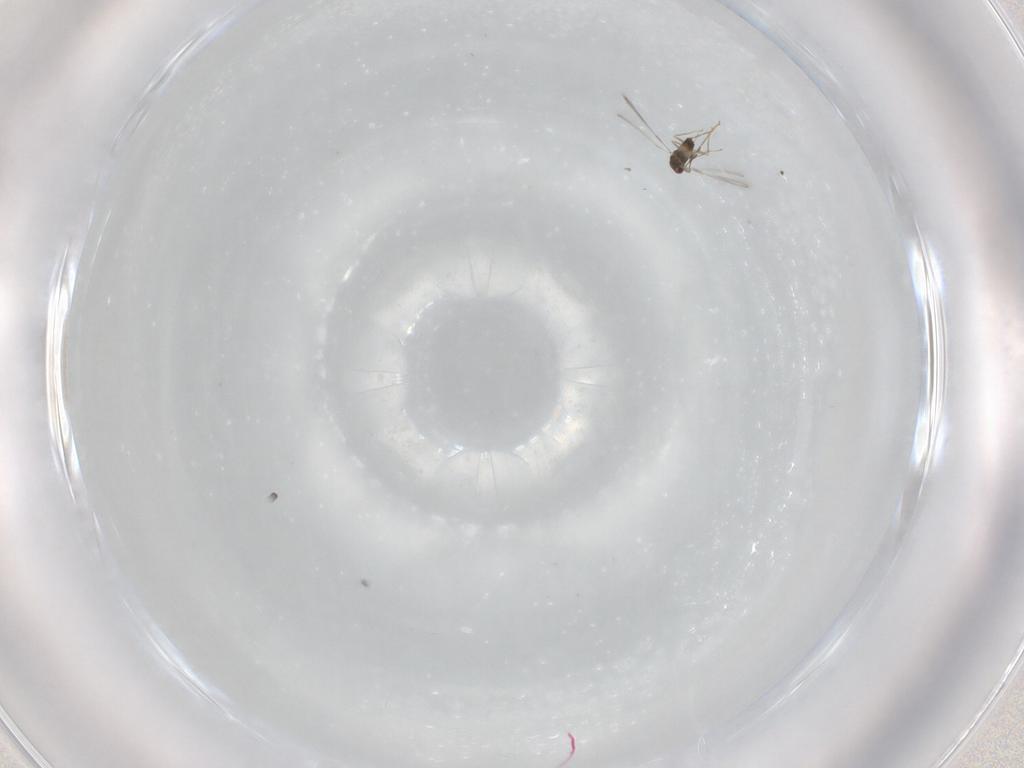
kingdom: Animalia
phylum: Arthropoda
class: Insecta
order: Hymenoptera
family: Mymaridae
